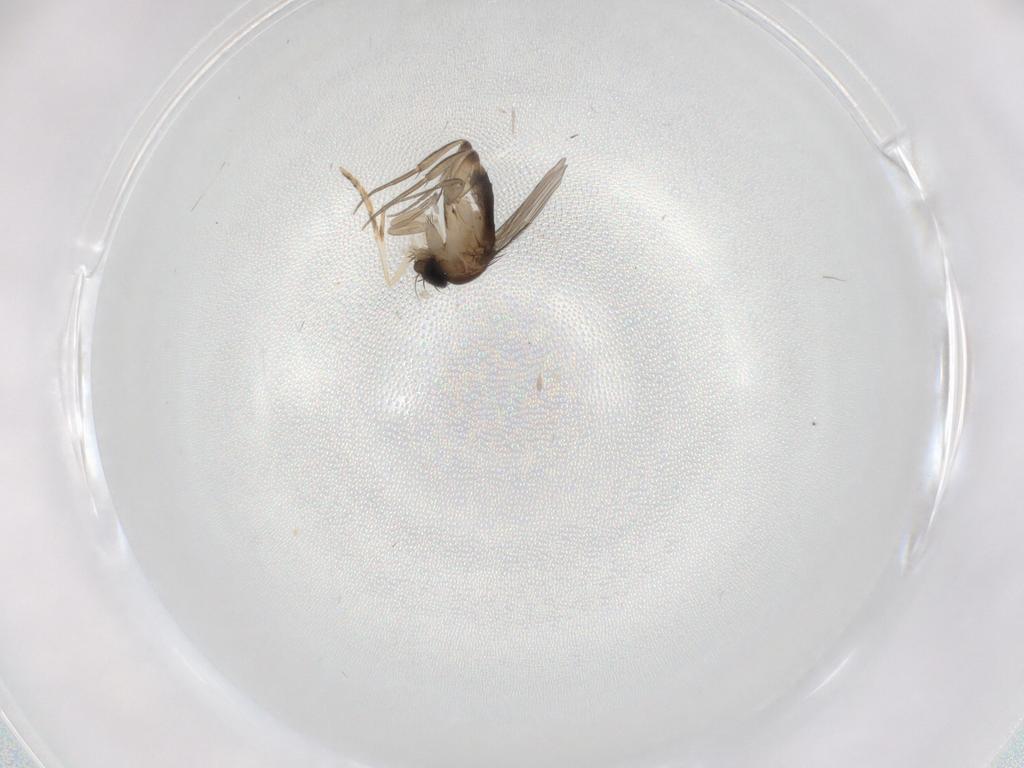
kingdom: Animalia
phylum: Arthropoda
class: Insecta
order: Diptera
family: Phoridae
